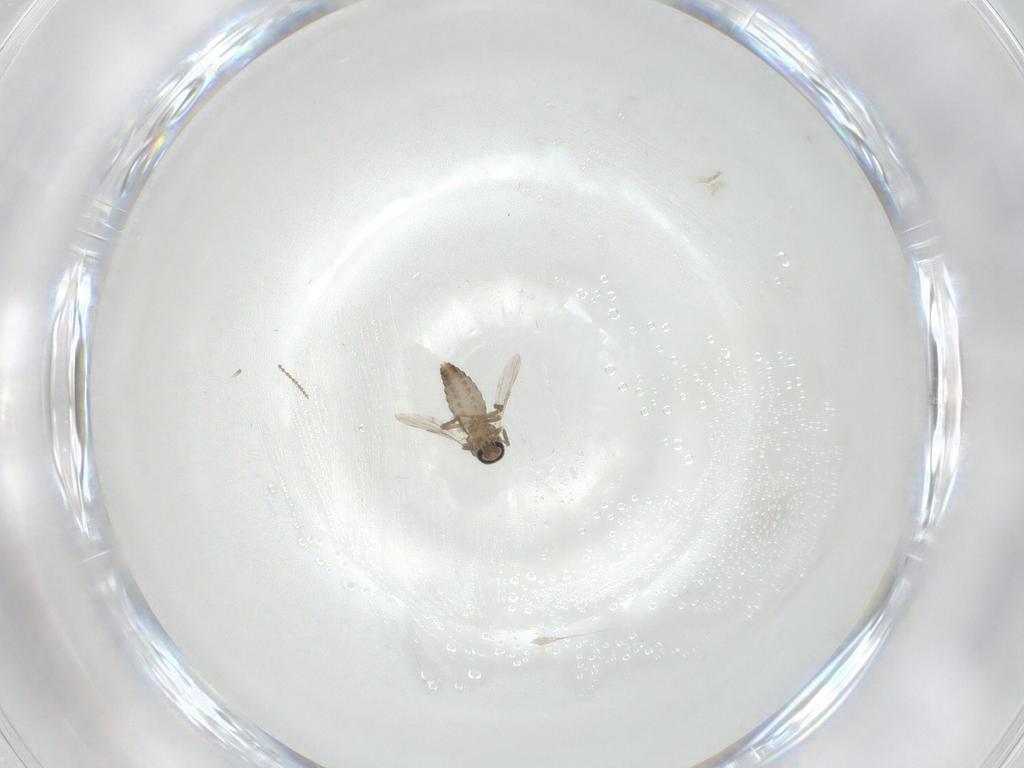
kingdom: Animalia
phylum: Arthropoda
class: Insecta
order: Diptera
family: Ceratopogonidae
